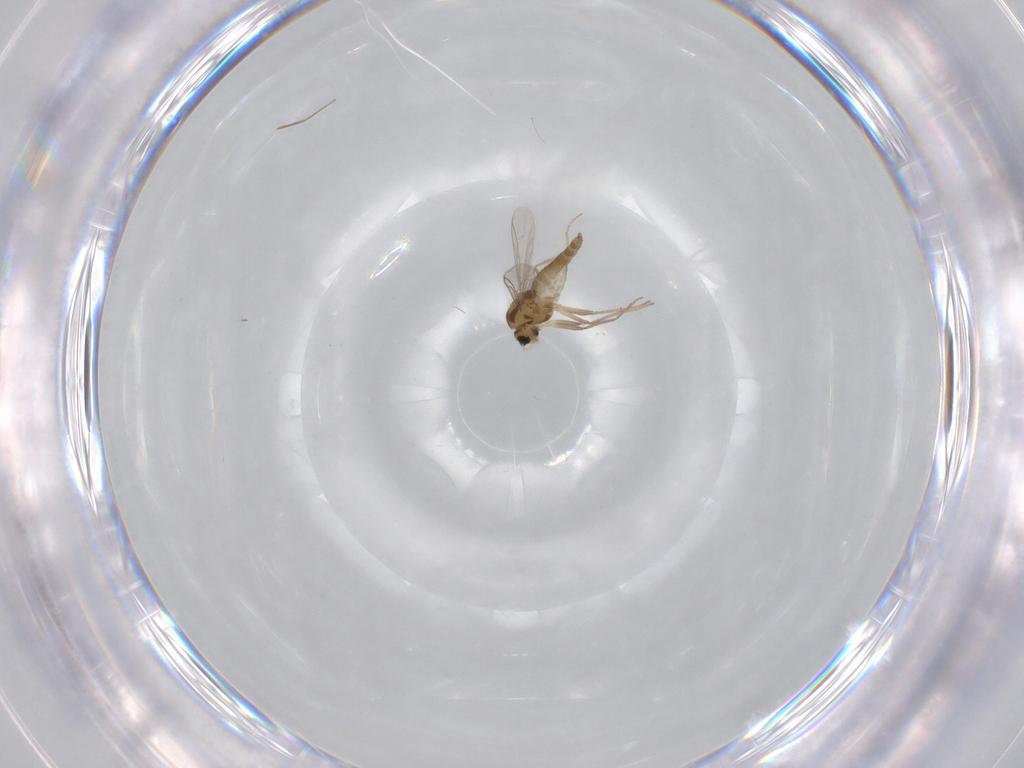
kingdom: Animalia
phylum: Arthropoda
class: Insecta
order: Diptera
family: Chironomidae
